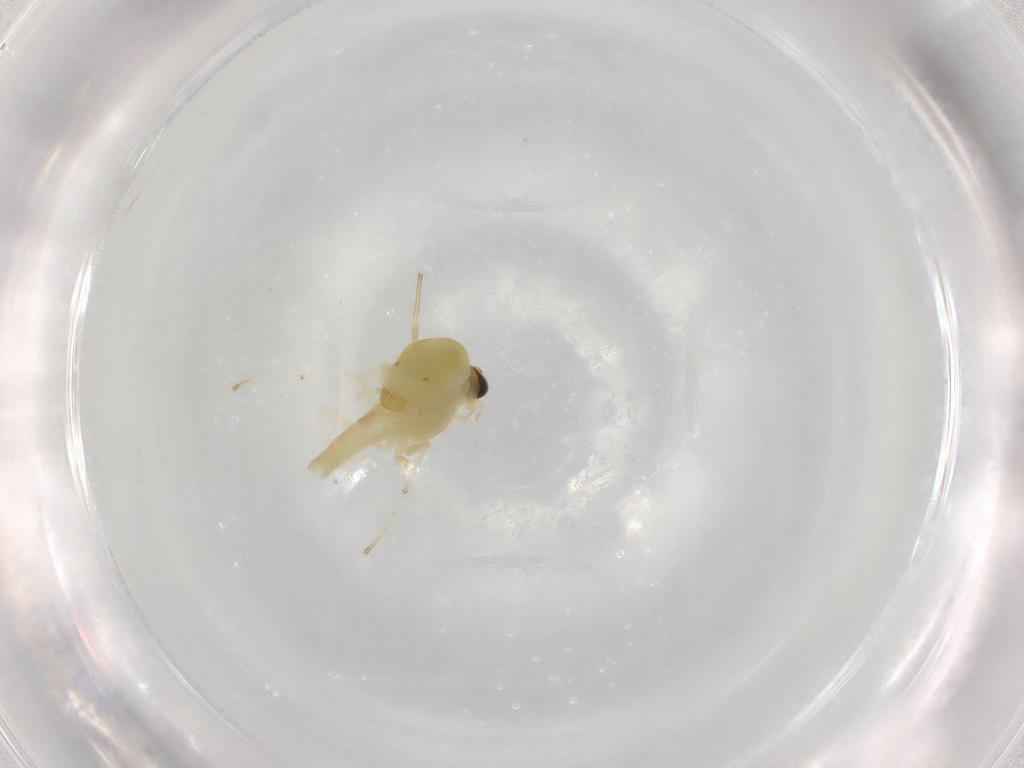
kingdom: Animalia
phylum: Arthropoda
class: Insecta
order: Diptera
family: Chironomidae
